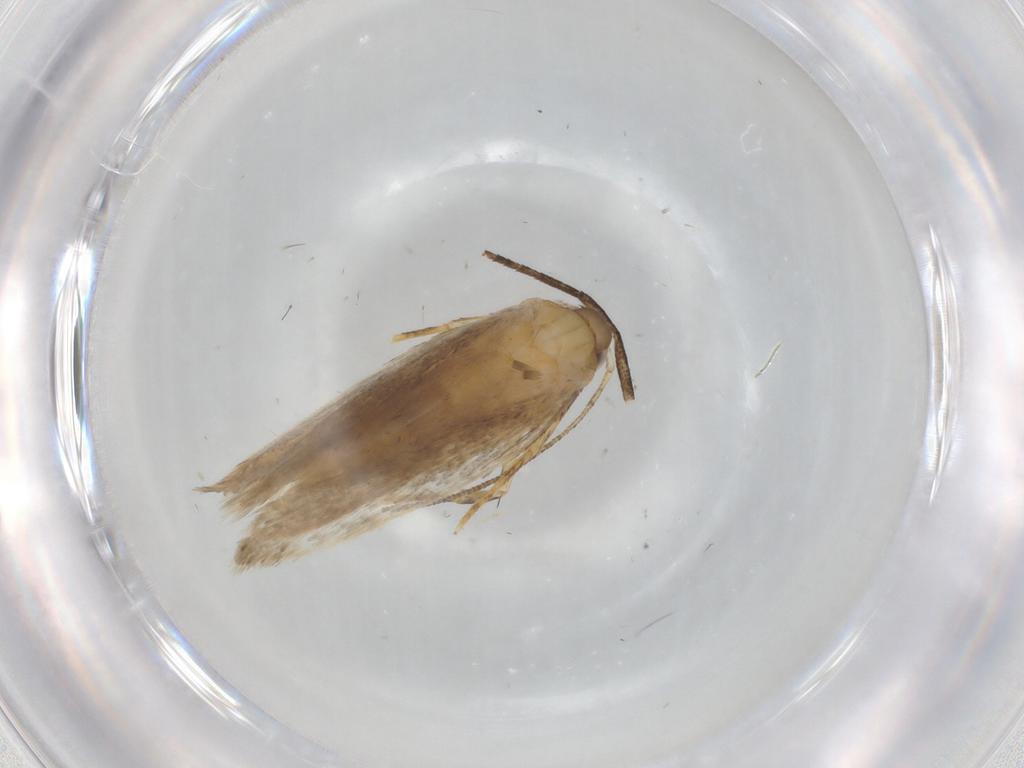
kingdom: Animalia
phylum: Arthropoda
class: Insecta
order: Lepidoptera
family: Autostichidae
